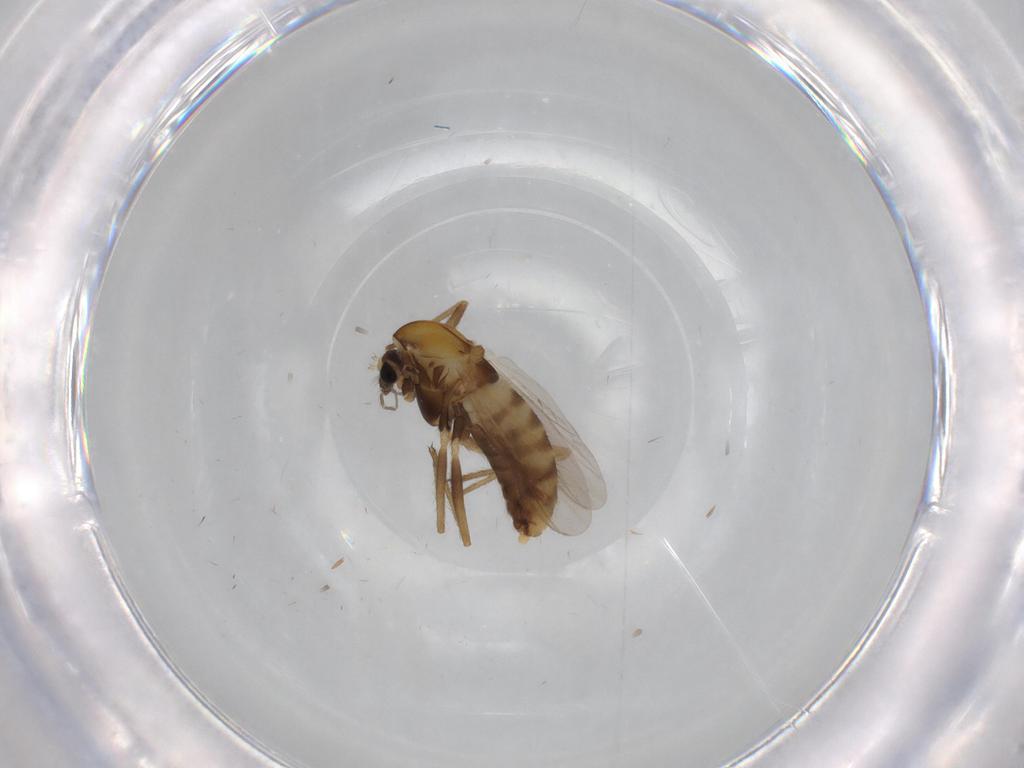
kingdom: Animalia
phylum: Arthropoda
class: Insecta
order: Diptera
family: Chironomidae
